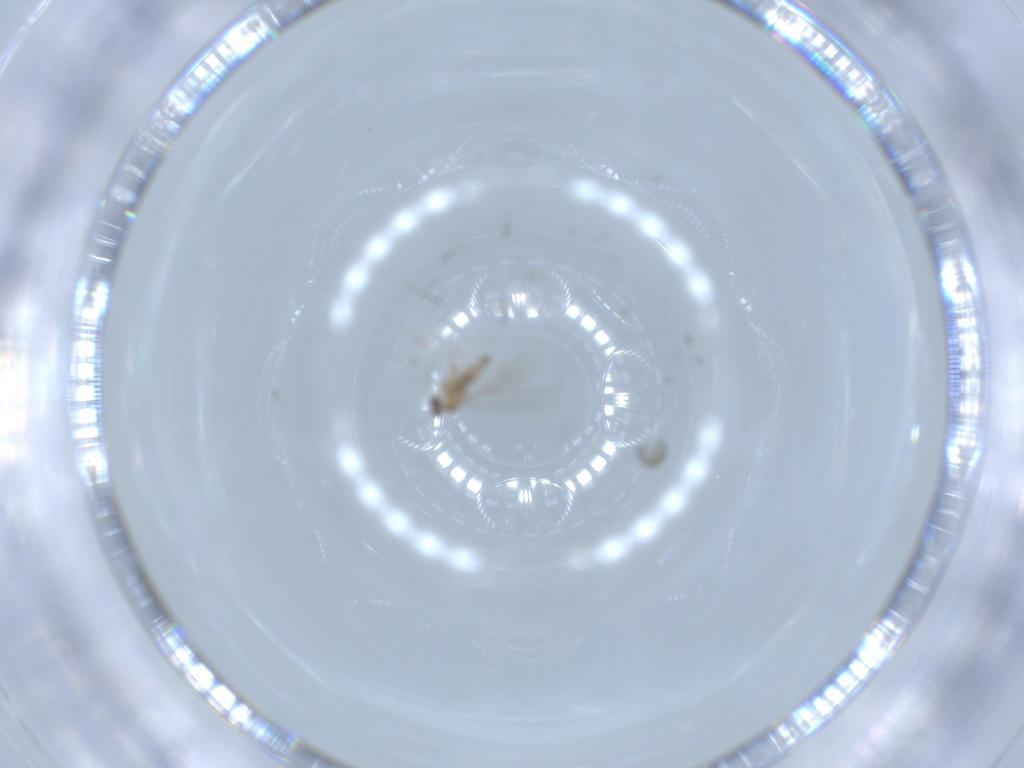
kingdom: Animalia
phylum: Arthropoda
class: Insecta
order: Diptera
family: Cecidomyiidae
